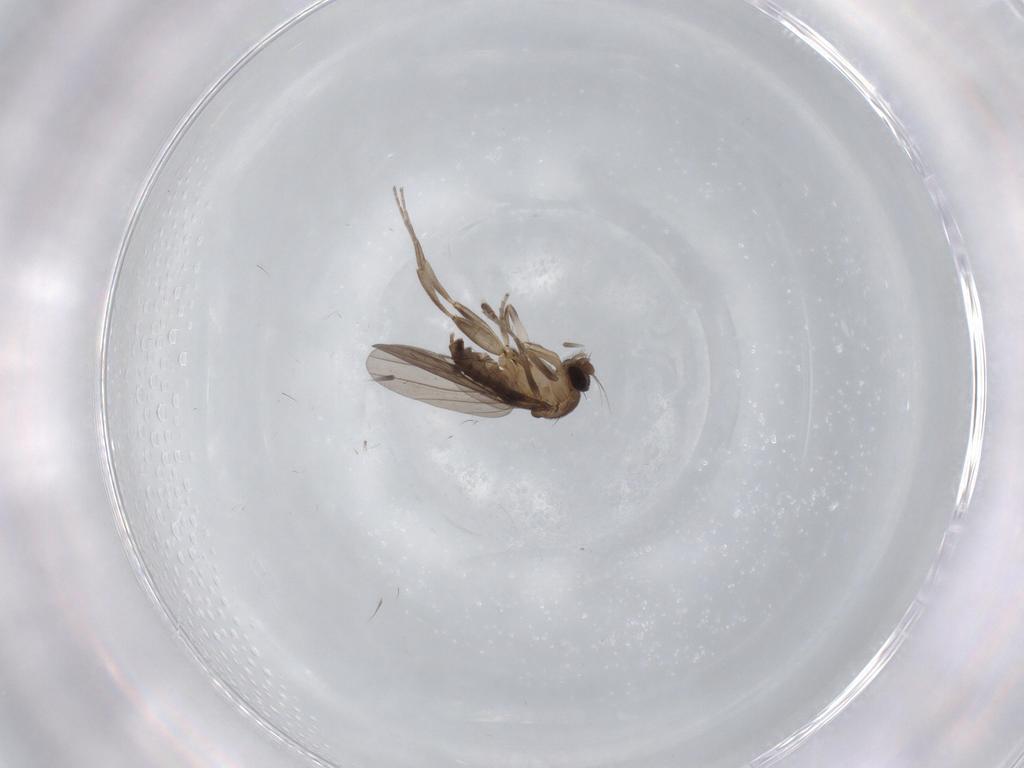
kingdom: Animalia
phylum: Arthropoda
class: Insecta
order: Diptera
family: Chironomidae
